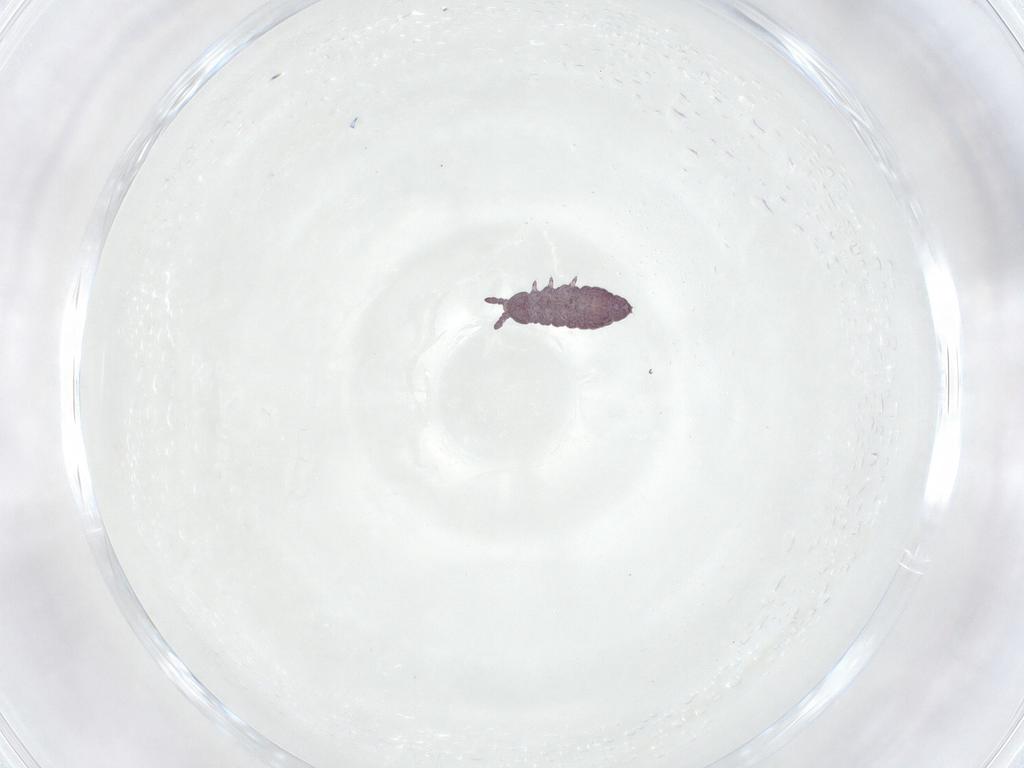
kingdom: Animalia
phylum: Arthropoda
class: Collembola
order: Poduromorpha
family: Hypogastruridae
